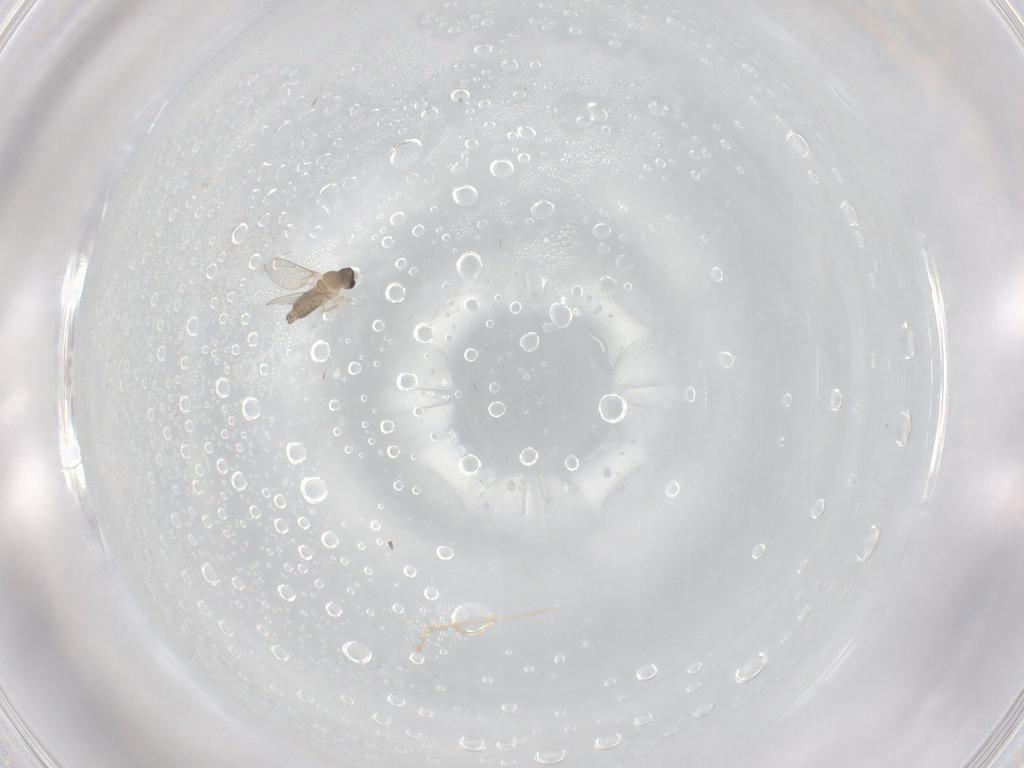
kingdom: Animalia
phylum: Arthropoda
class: Insecta
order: Diptera
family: Cecidomyiidae
